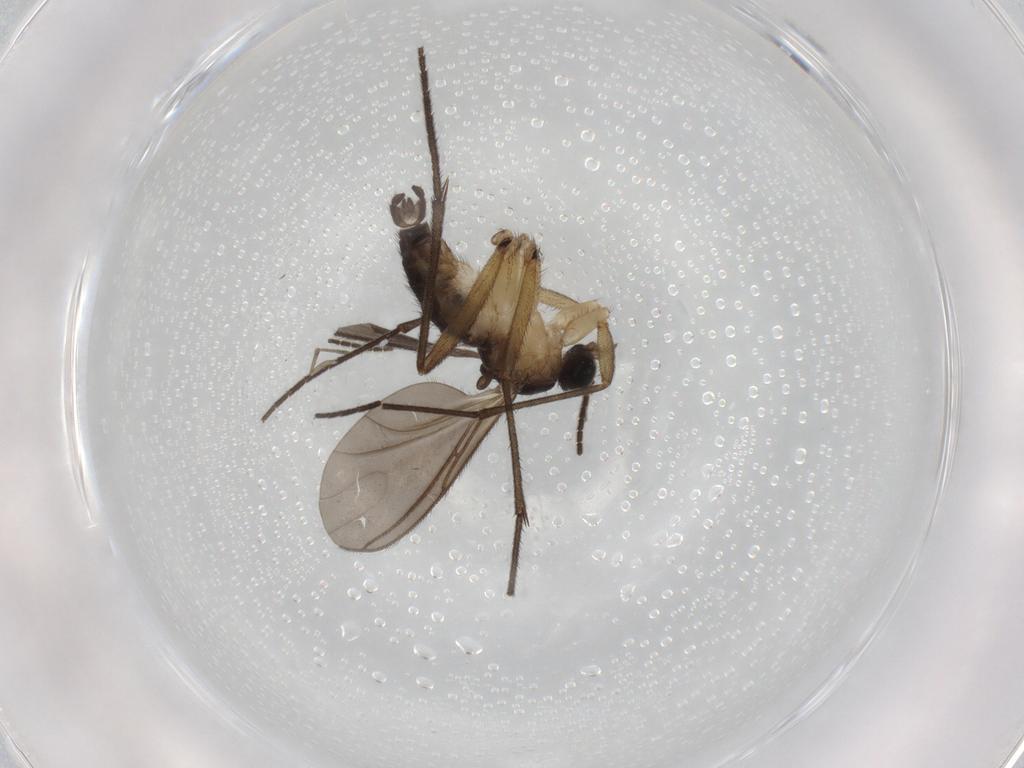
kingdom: Animalia
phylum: Arthropoda
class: Insecta
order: Diptera
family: Sciaridae
